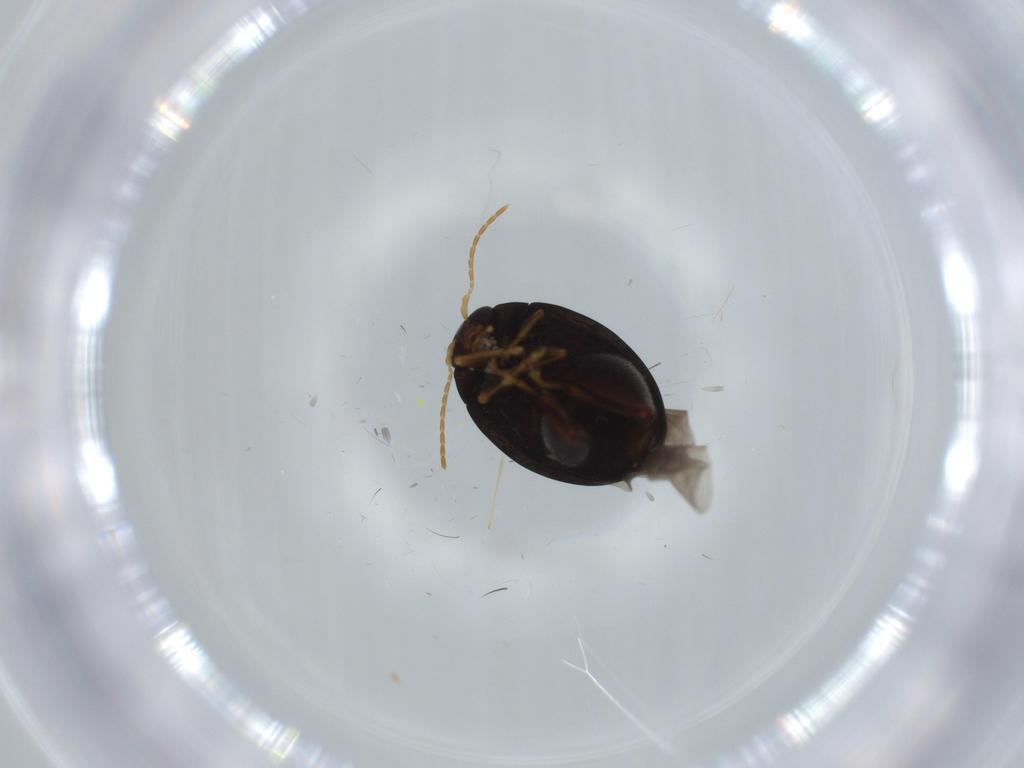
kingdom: Animalia
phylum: Arthropoda
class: Insecta
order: Coleoptera
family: Chrysomelidae
